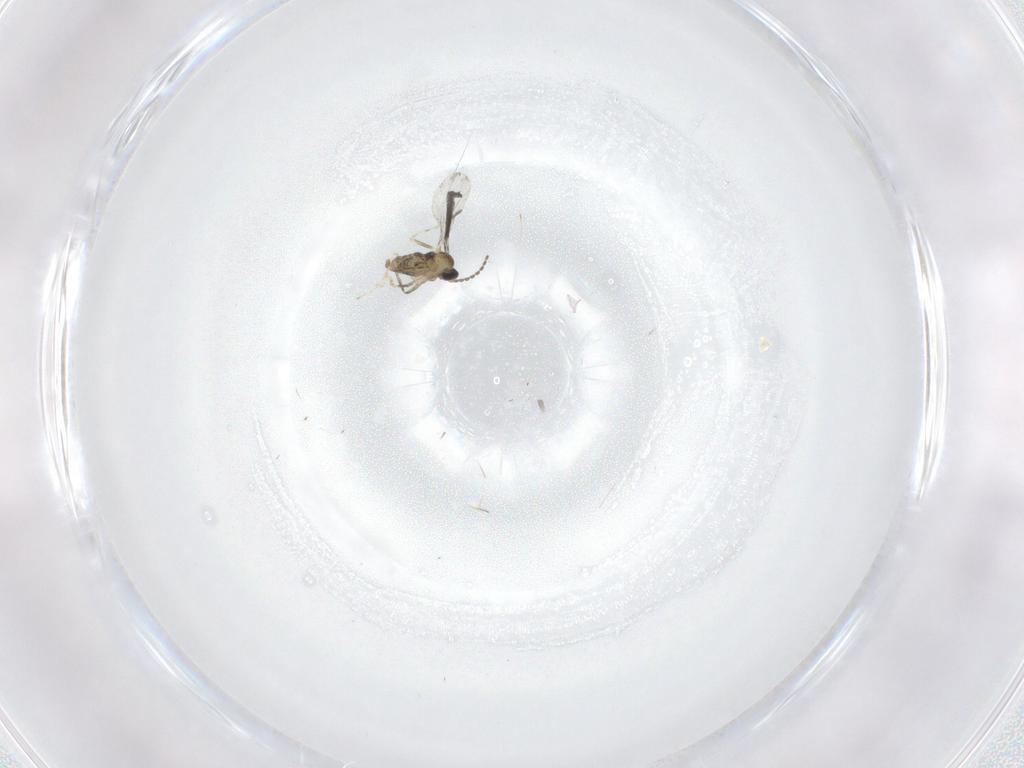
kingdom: Animalia
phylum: Arthropoda
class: Insecta
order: Diptera
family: Cecidomyiidae
